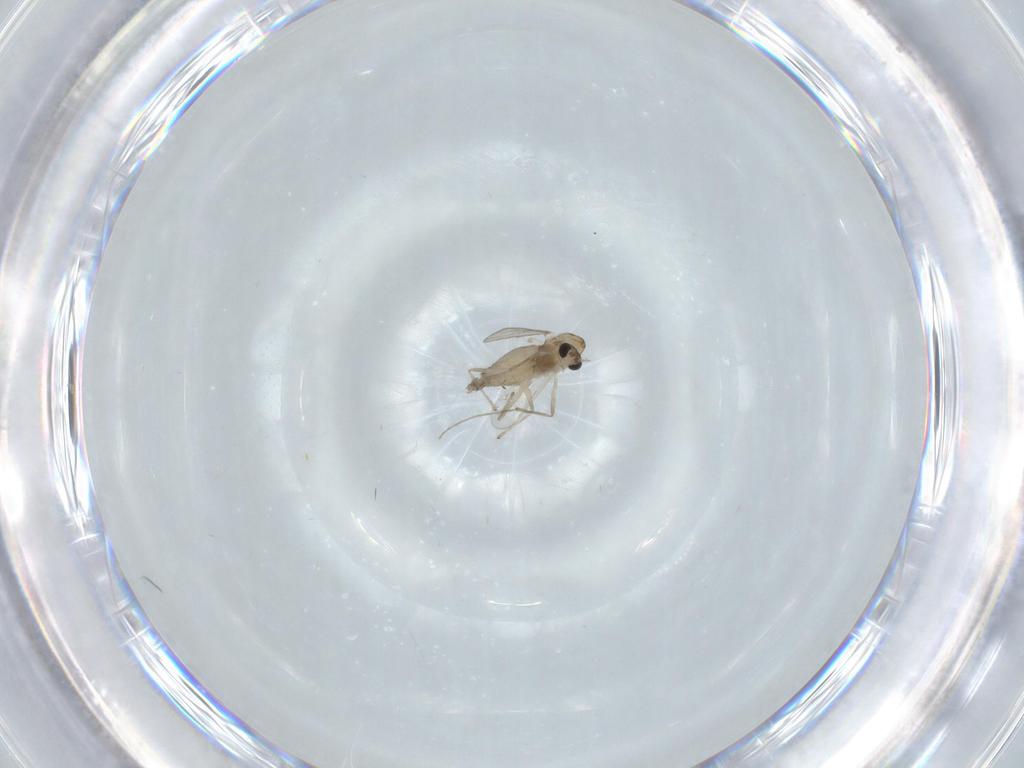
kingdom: Animalia
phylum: Arthropoda
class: Insecta
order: Diptera
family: Chironomidae
